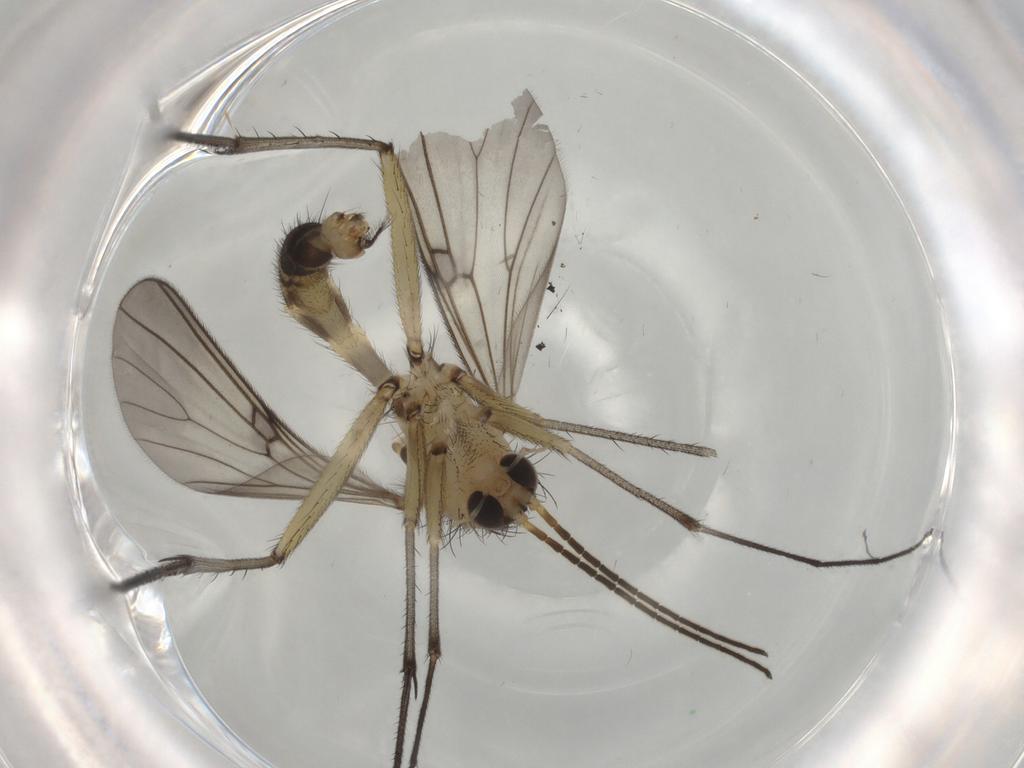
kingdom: Animalia
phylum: Arthropoda
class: Insecta
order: Diptera
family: Mycetophilidae
